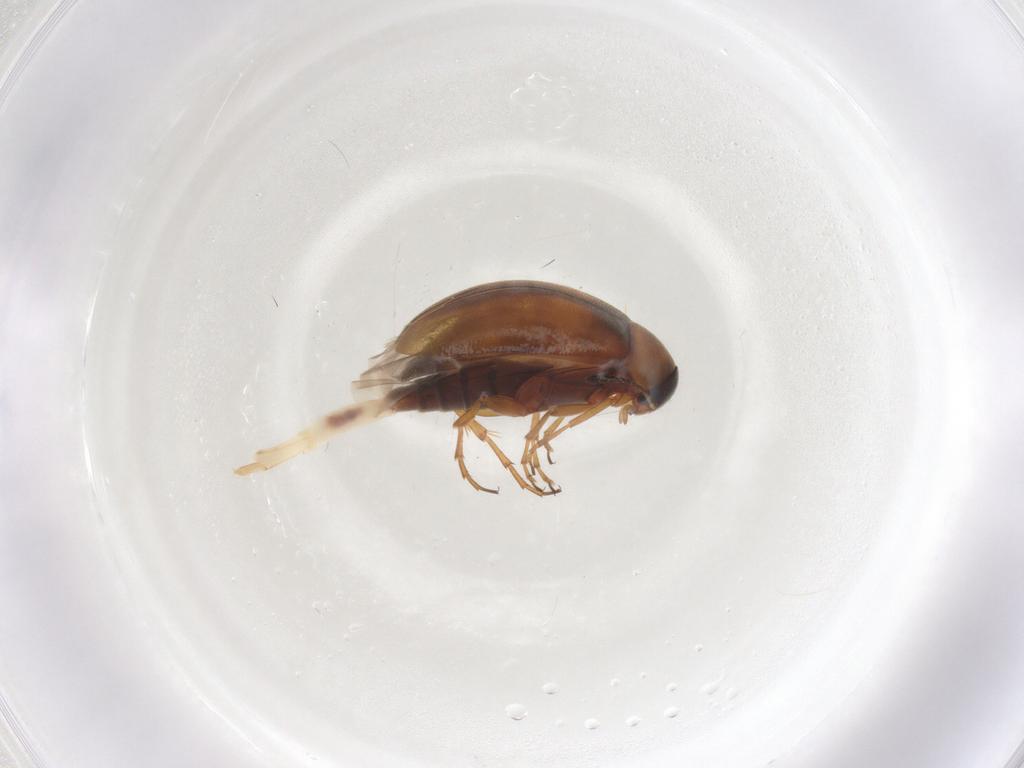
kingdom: Animalia
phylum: Arthropoda
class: Insecta
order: Coleoptera
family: Scraptiidae
